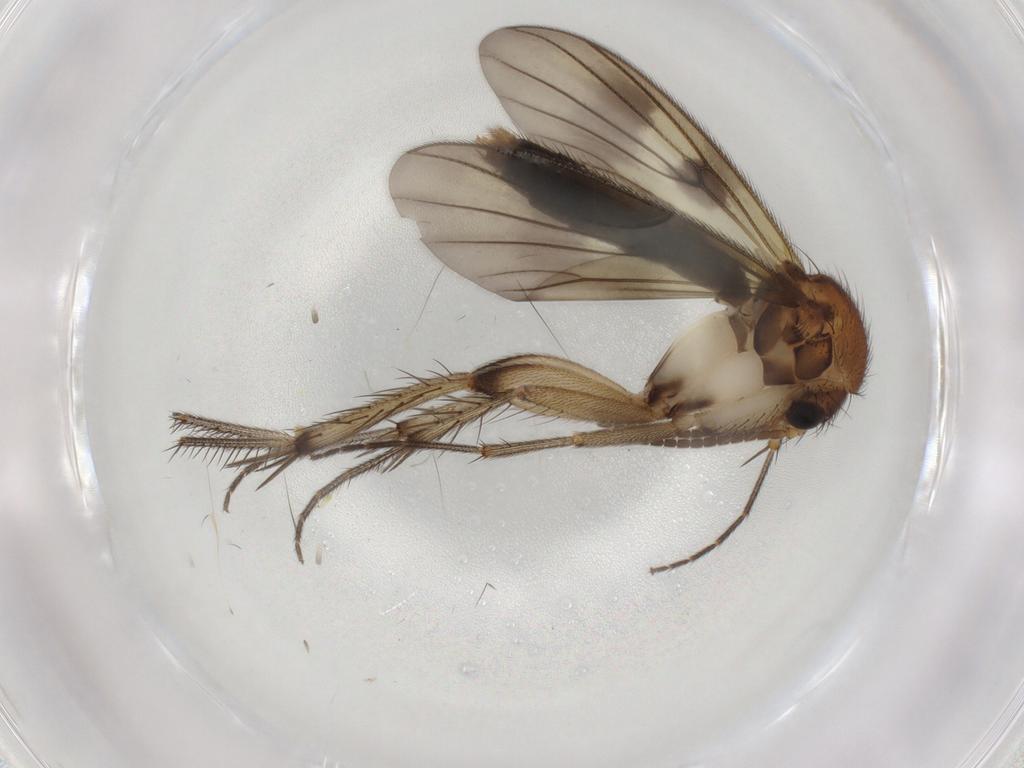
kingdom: Animalia
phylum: Arthropoda
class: Insecta
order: Diptera
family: Mycetophilidae
